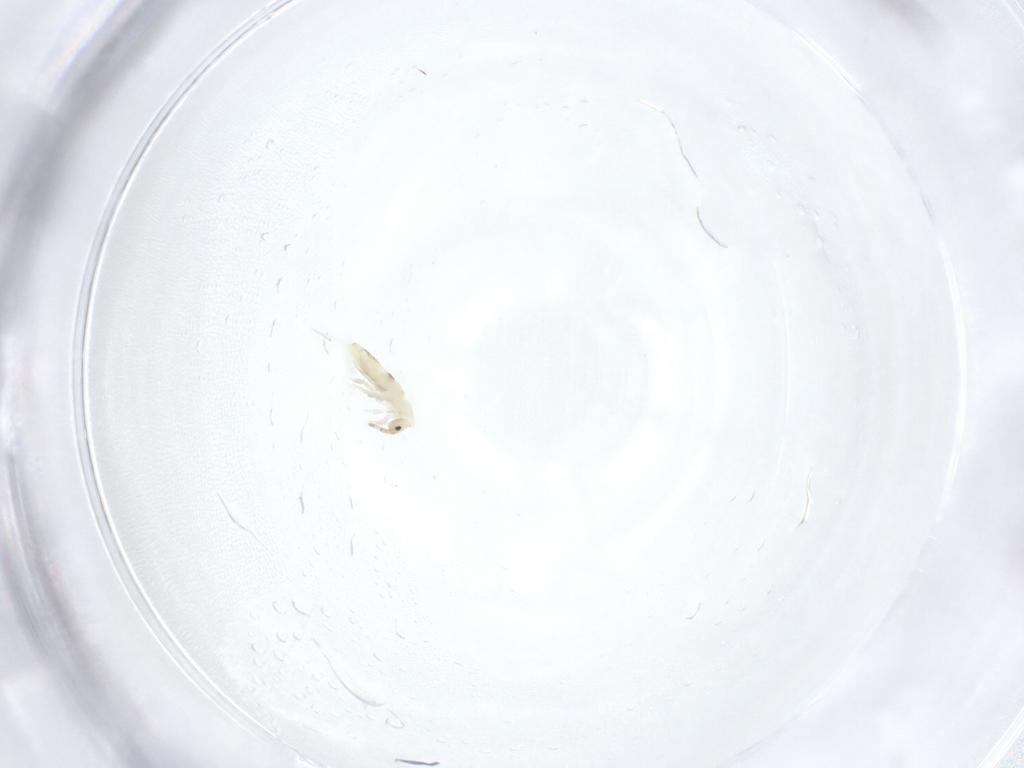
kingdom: Animalia
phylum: Arthropoda
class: Collembola
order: Entomobryomorpha
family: Entomobryidae
